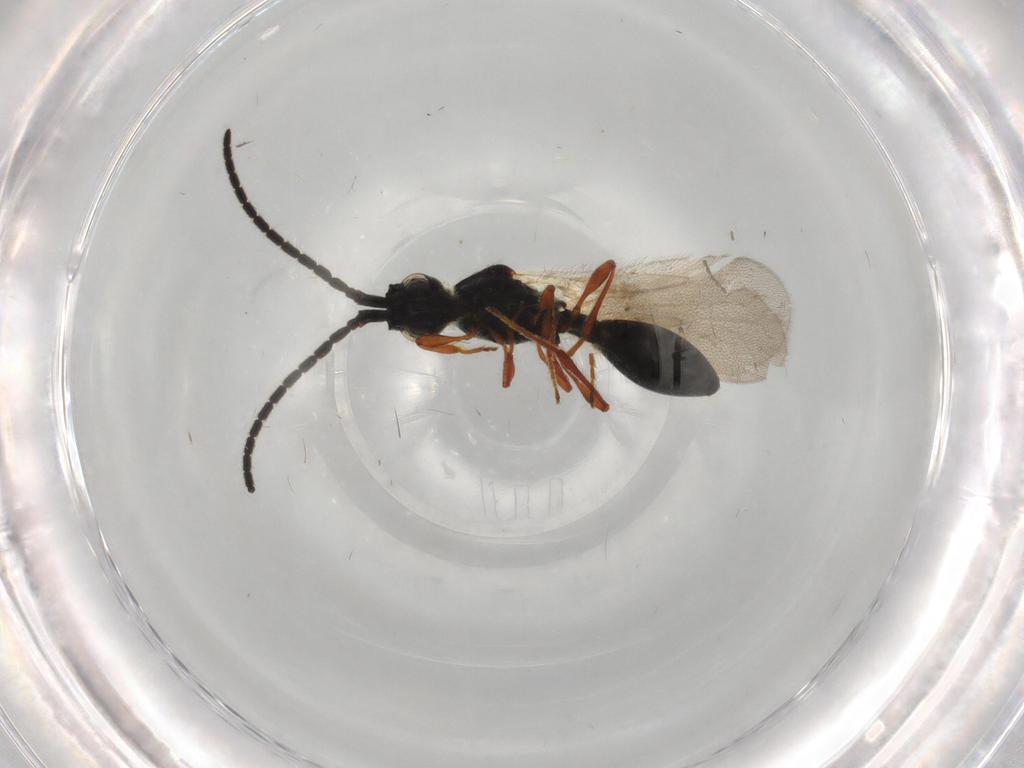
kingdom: Animalia
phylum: Arthropoda
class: Insecta
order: Hymenoptera
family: Diapriidae
